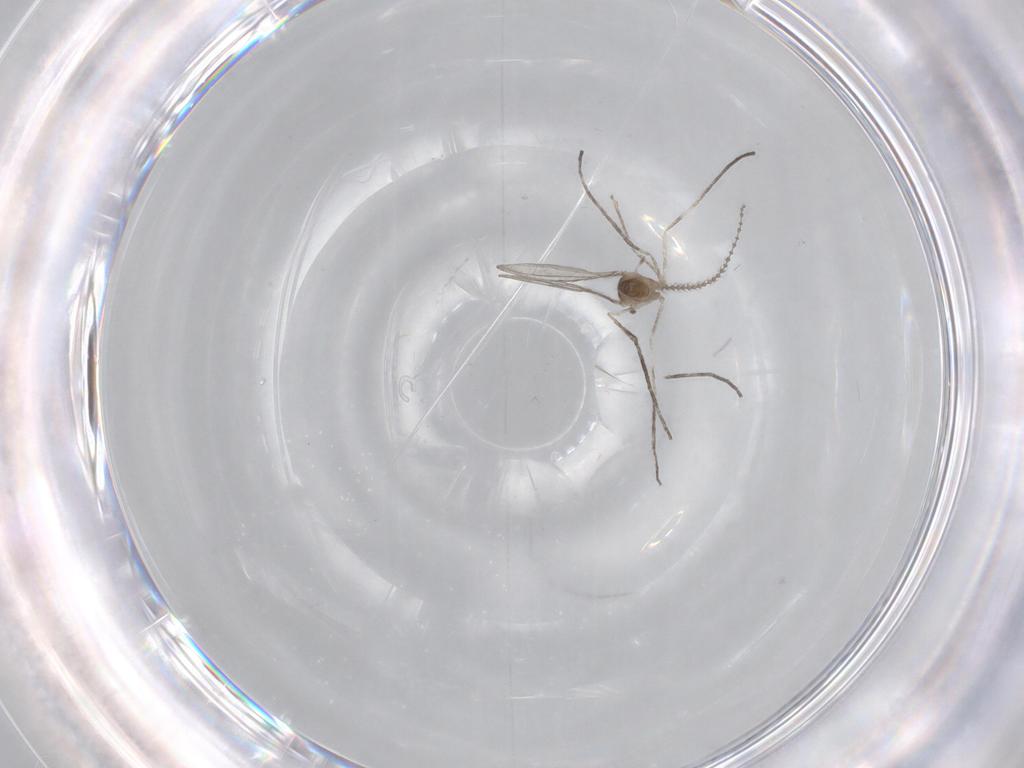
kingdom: Animalia
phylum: Arthropoda
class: Insecta
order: Diptera
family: Cecidomyiidae
